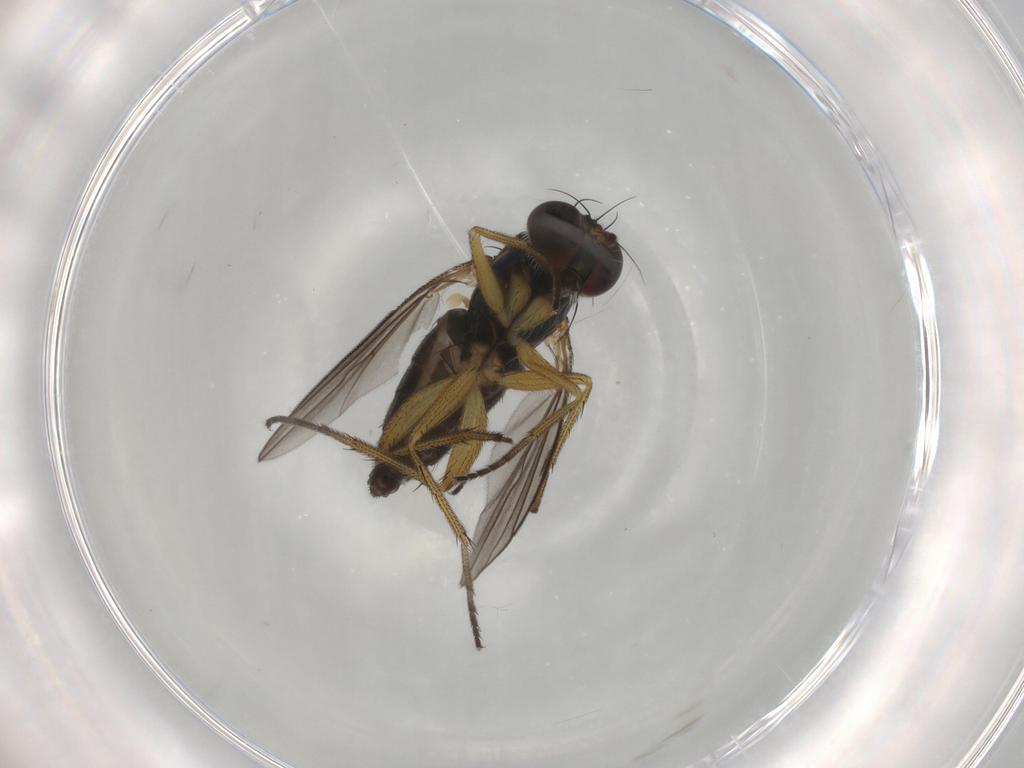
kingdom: Animalia
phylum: Arthropoda
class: Insecta
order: Diptera
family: Dolichopodidae
